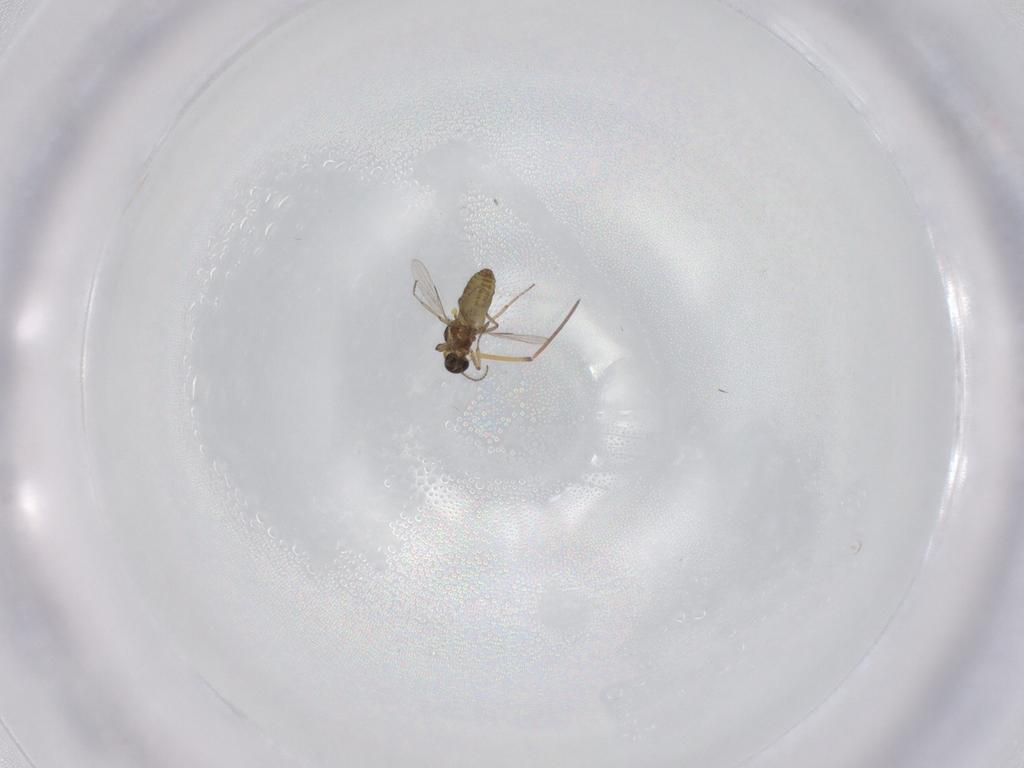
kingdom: Animalia
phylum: Arthropoda
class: Insecta
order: Diptera
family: Ceratopogonidae
